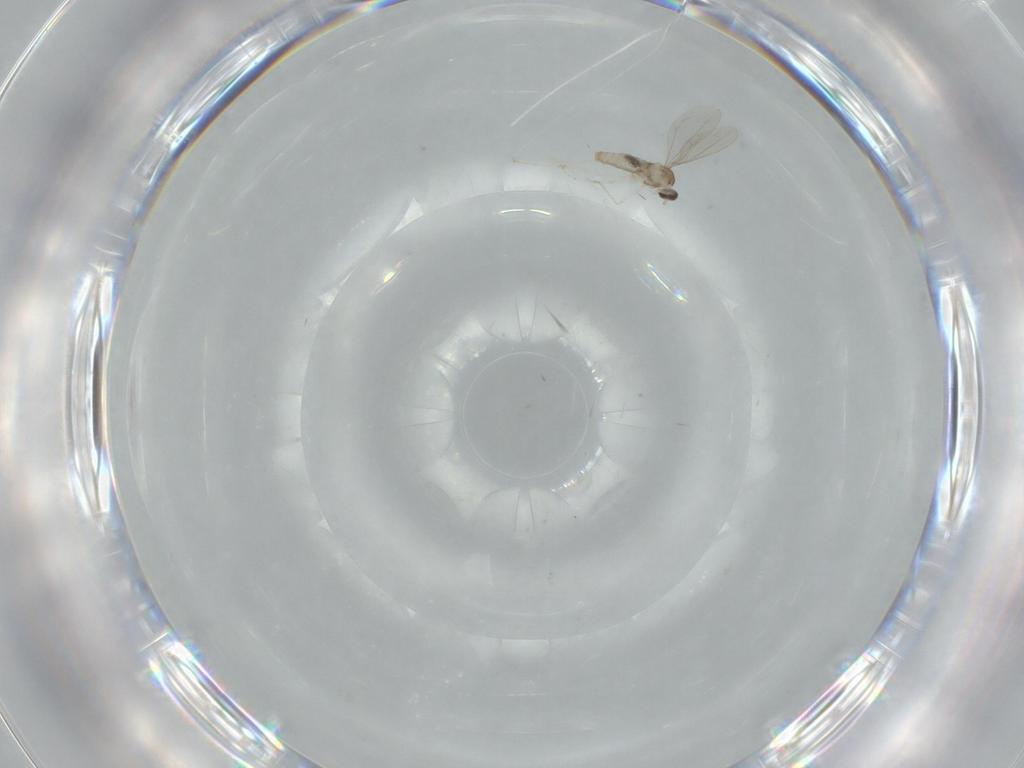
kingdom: Animalia
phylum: Arthropoda
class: Insecta
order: Diptera
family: Cecidomyiidae
